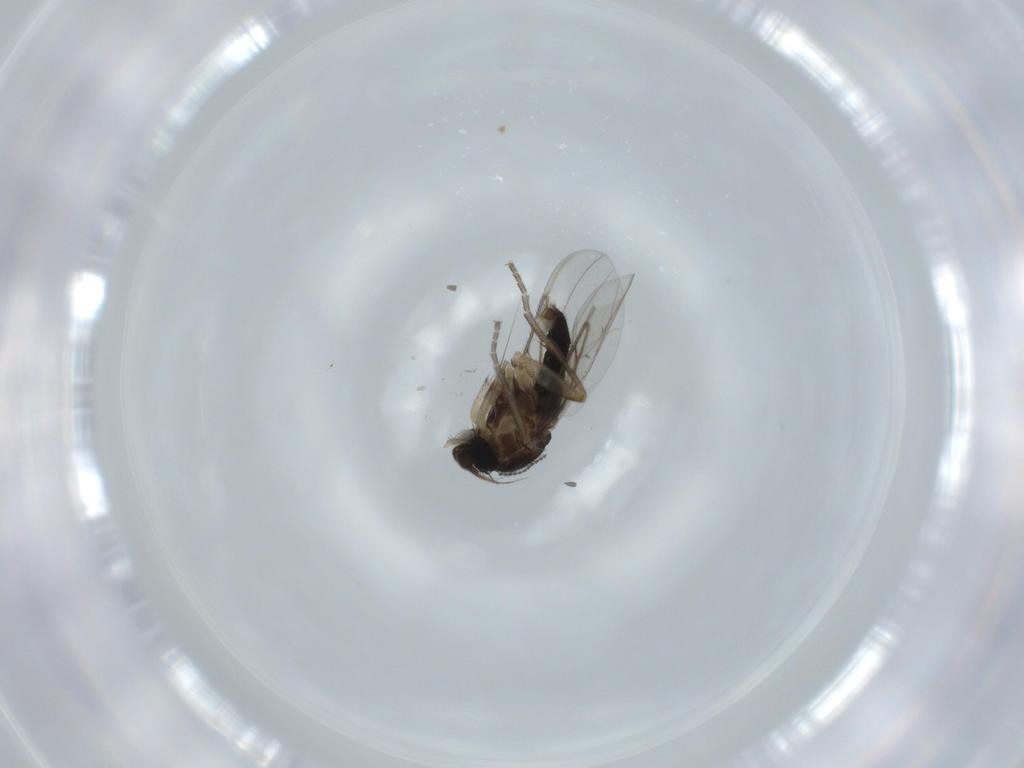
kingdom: Animalia
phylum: Arthropoda
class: Insecta
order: Diptera
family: Phoridae
